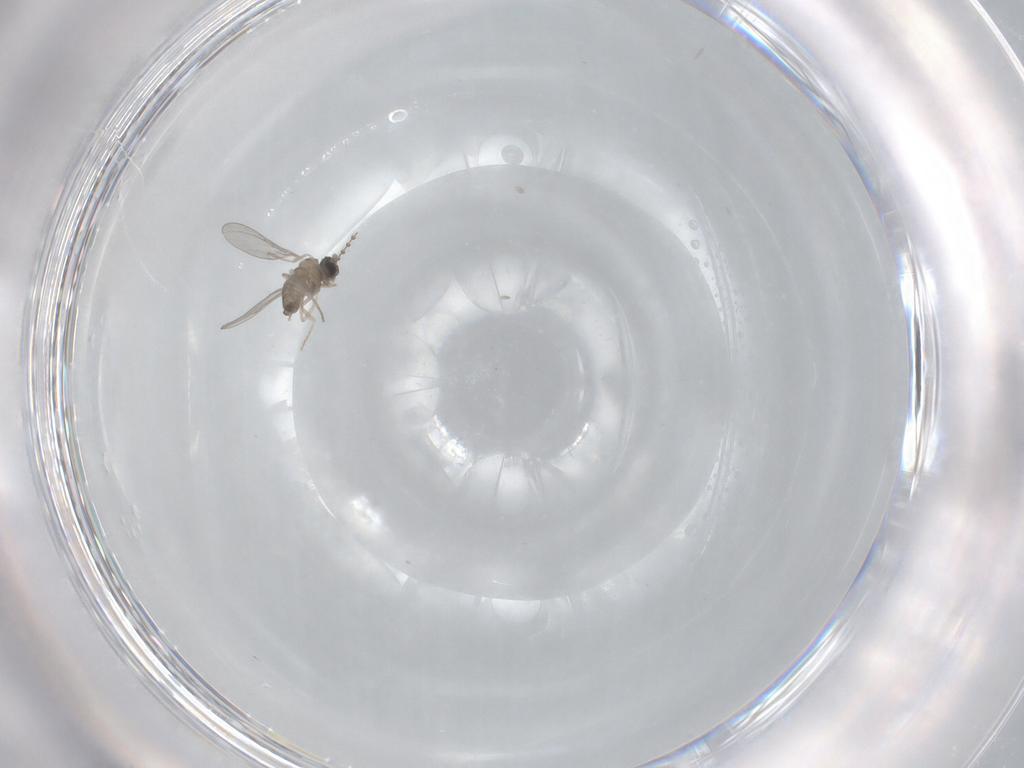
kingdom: Animalia
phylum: Arthropoda
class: Insecta
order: Diptera
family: Cecidomyiidae
